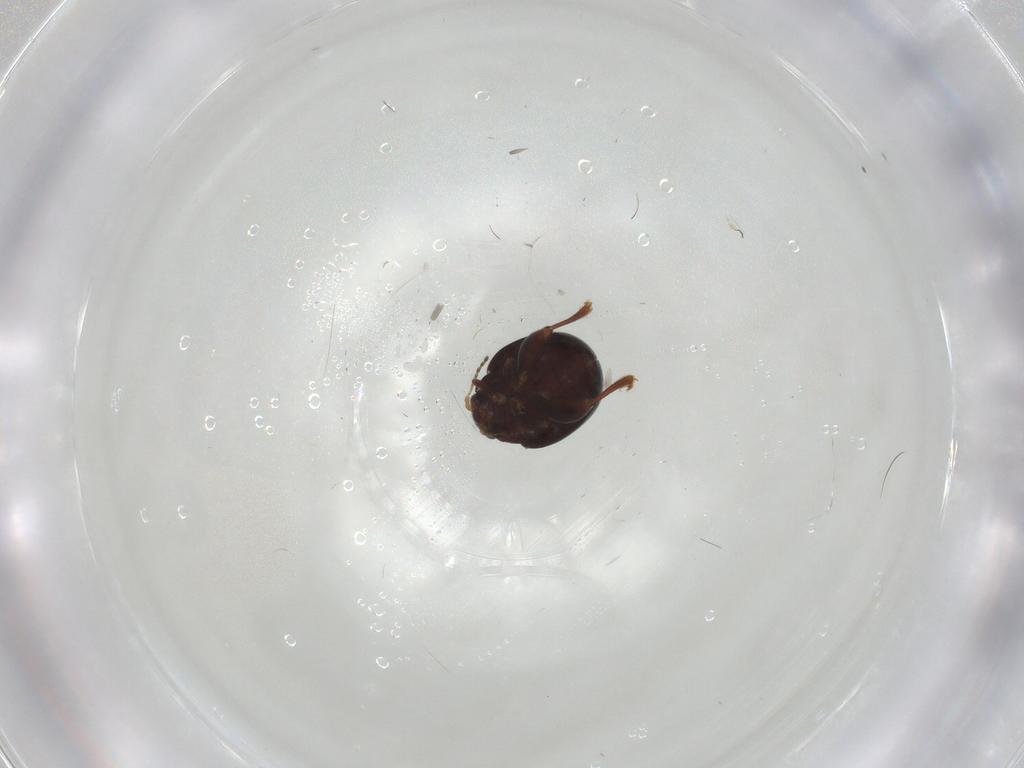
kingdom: Animalia
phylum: Arthropoda
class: Insecta
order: Coleoptera
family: Chrysomelidae
